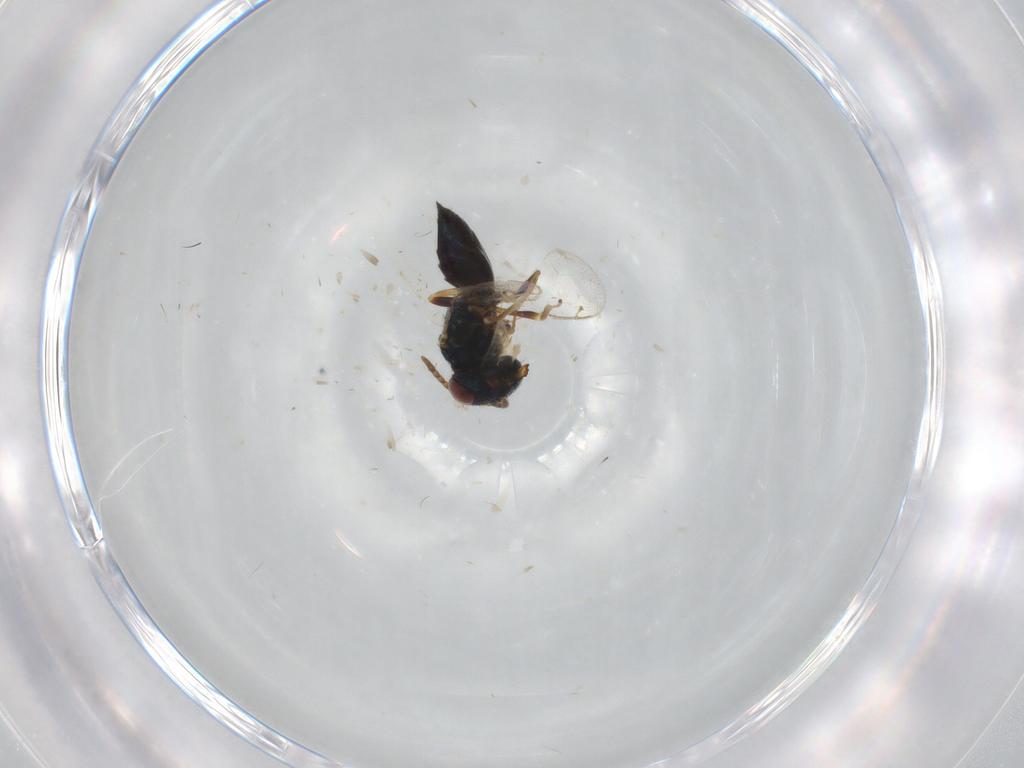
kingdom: Animalia
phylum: Arthropoda
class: Insecta
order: Hymenoptera
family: Pteromalidae
